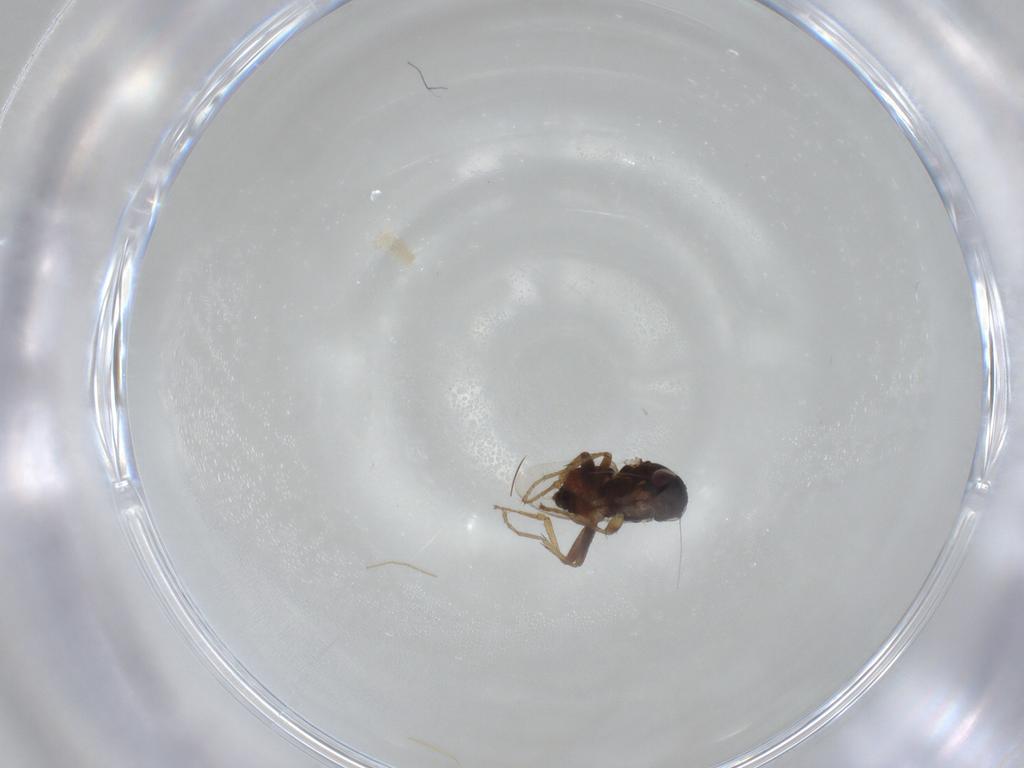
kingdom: Animalia
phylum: Arthropoda
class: Insecta
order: Diptera
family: Sphaeroceridae
